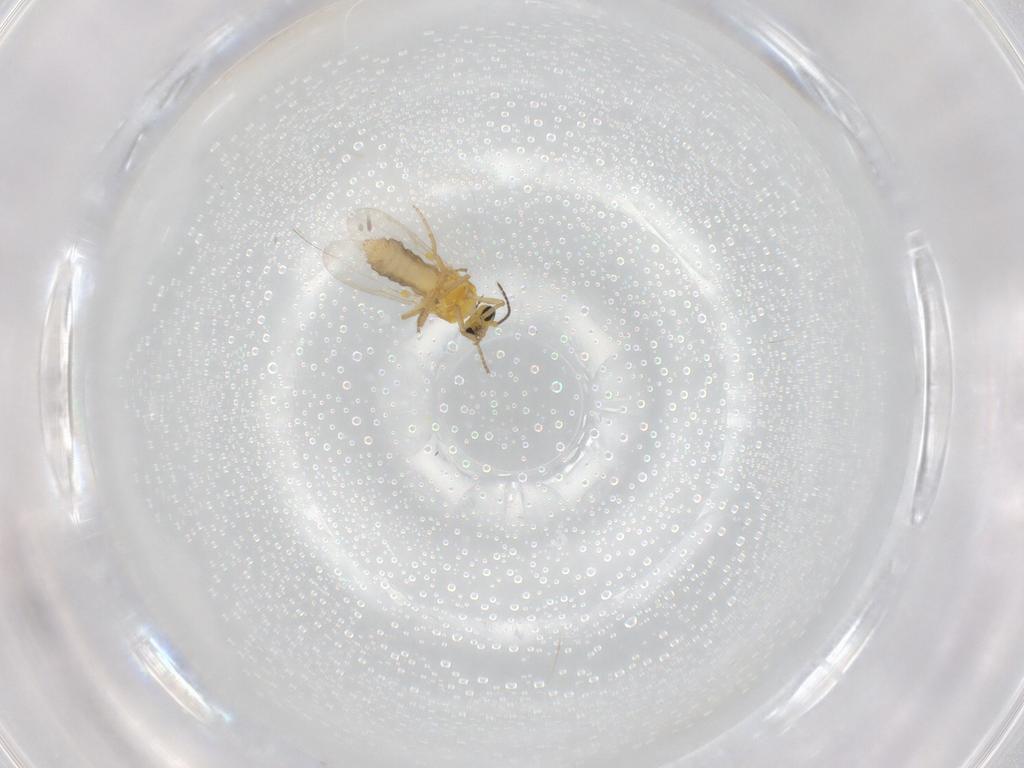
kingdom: Animalia
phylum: Arthropoda
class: Insecta
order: Diptera
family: Ceratopogonidae
